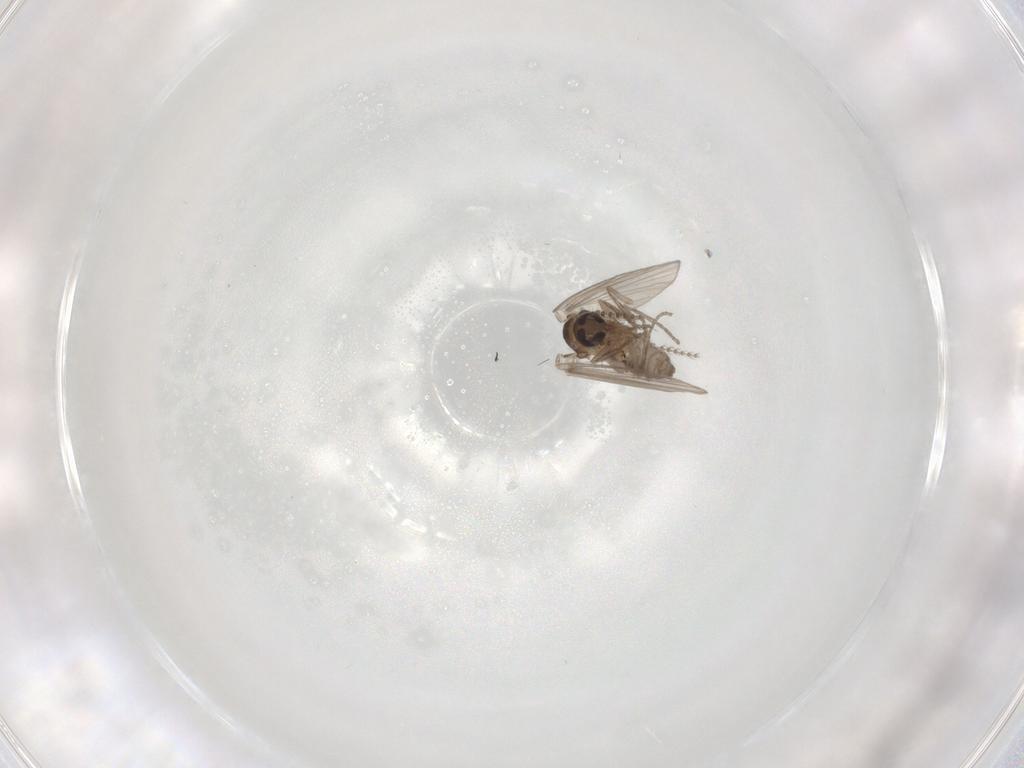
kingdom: Animalia
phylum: Arthropoda
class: Insecta
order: Diptera
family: Psychodidae
